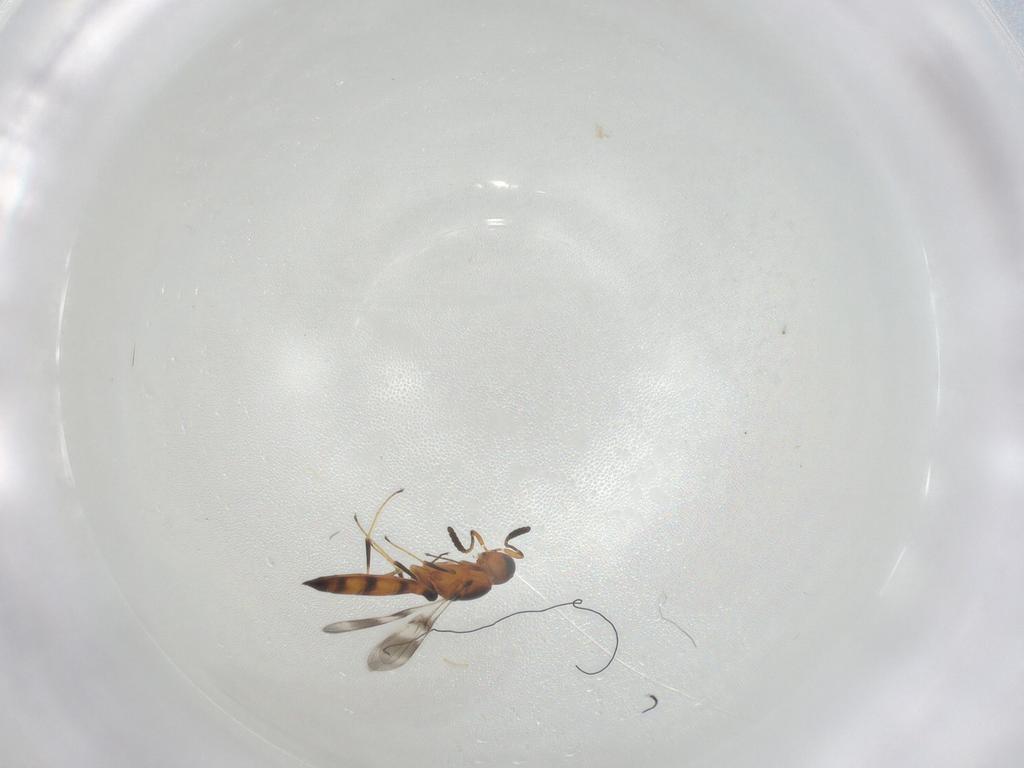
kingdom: Animalia
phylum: Arthropoda
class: Insecta
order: Hymenoptera
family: Scelionidae
